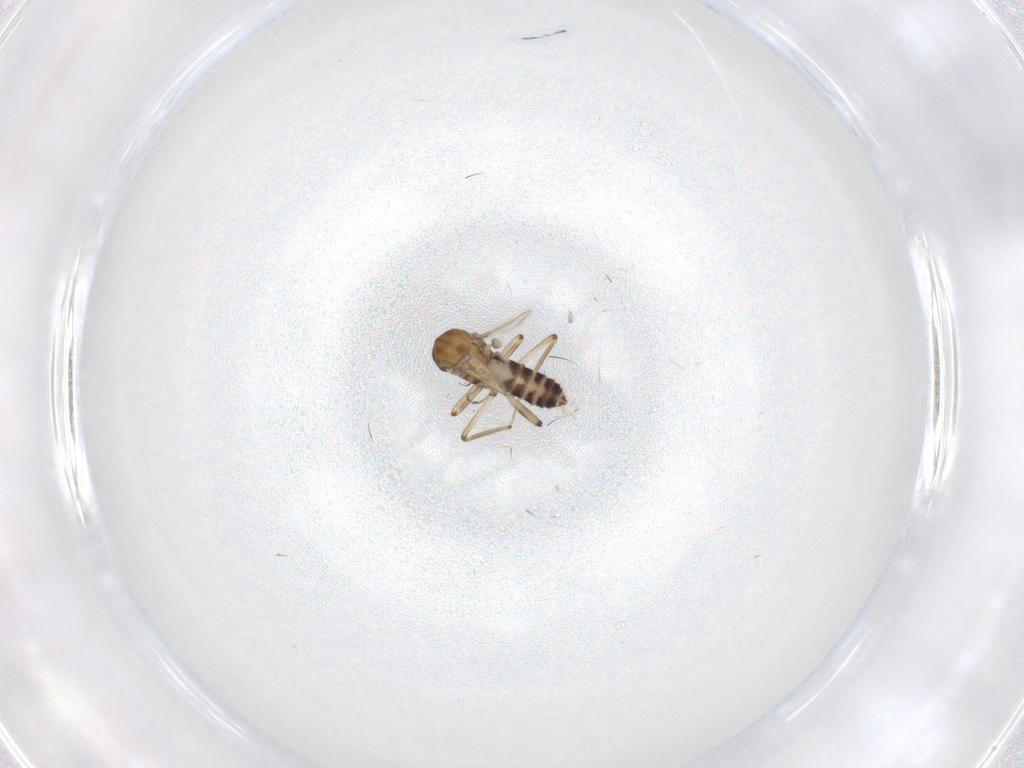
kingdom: Animalia
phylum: Arthropoda
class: Insecta
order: Diptera
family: Ceratopogonidae
